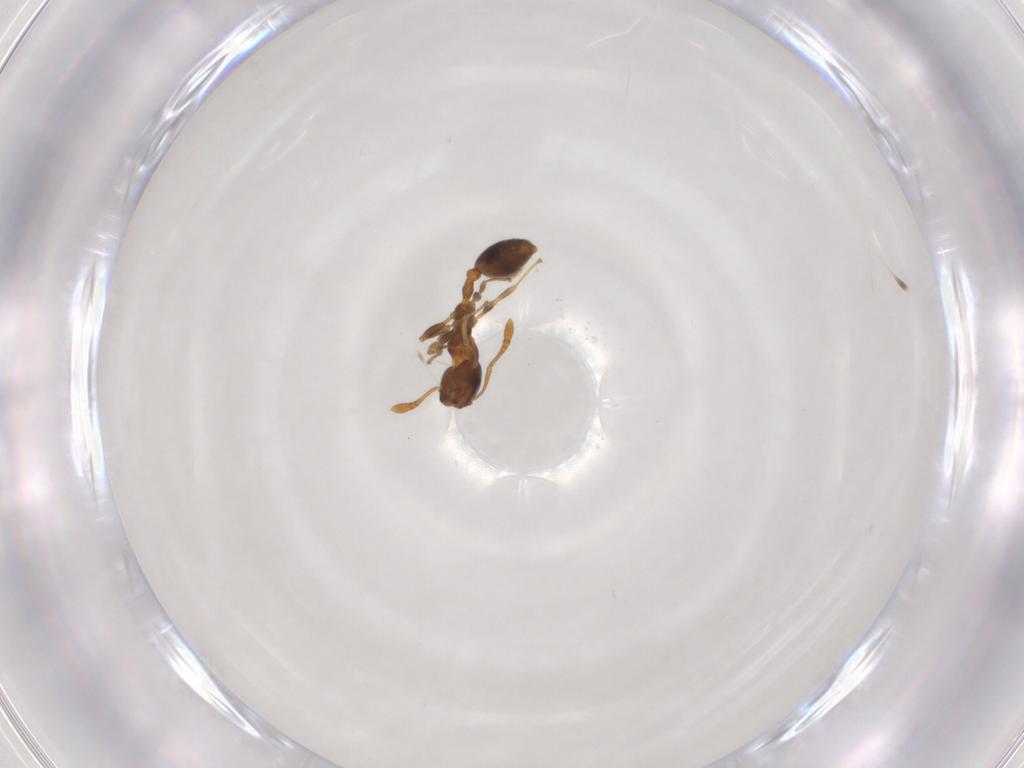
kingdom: Animalia
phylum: Arthropoda
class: Insecta
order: Hymenoptera
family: Formicidae
